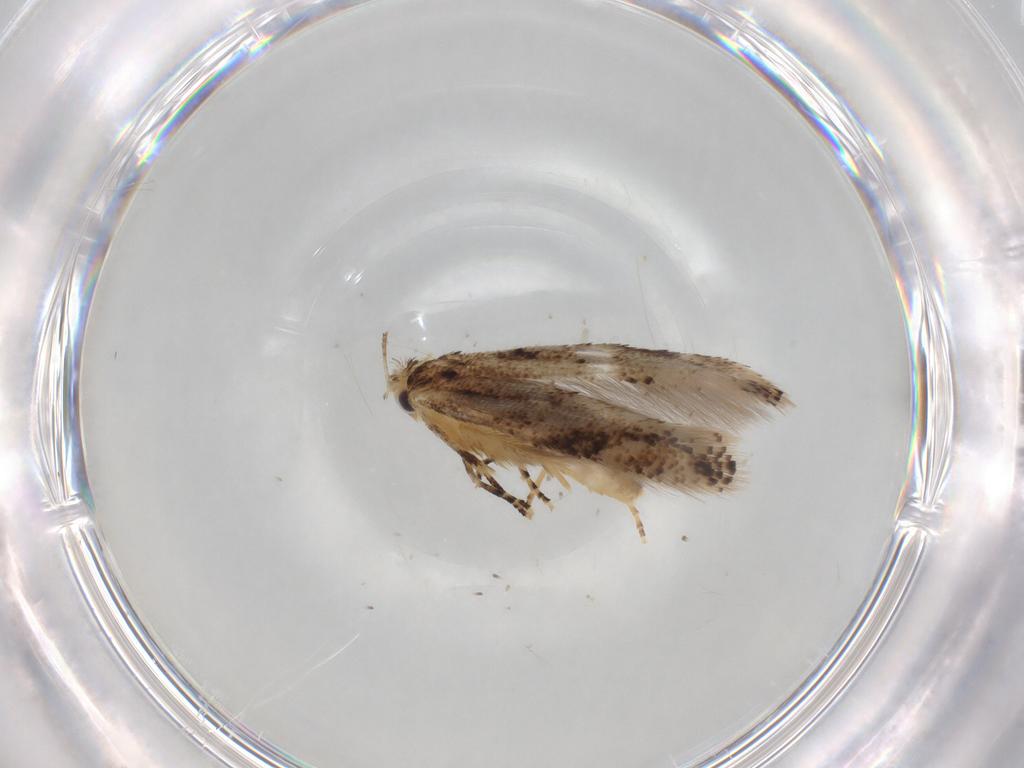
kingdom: Animalia
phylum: Arthropoda
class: Insecta
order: Lepidoptera
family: Bucculatricidae
